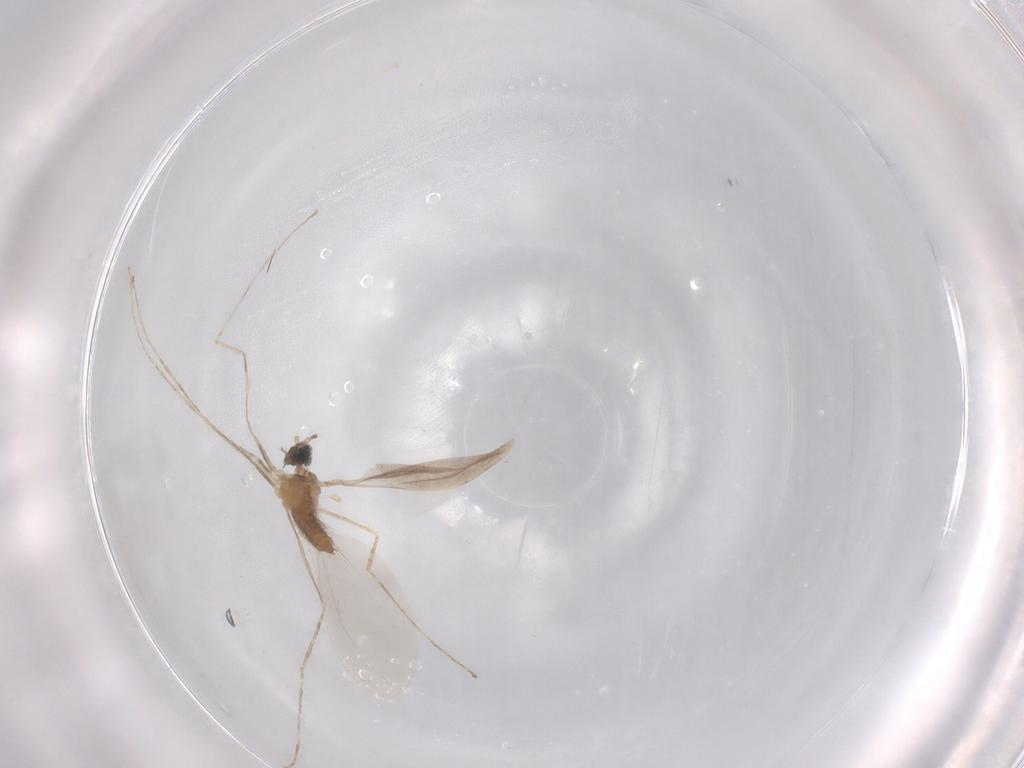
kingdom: Animalia
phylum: Arthropoda
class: Insecta
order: Diptera
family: Cecidomyiidae
